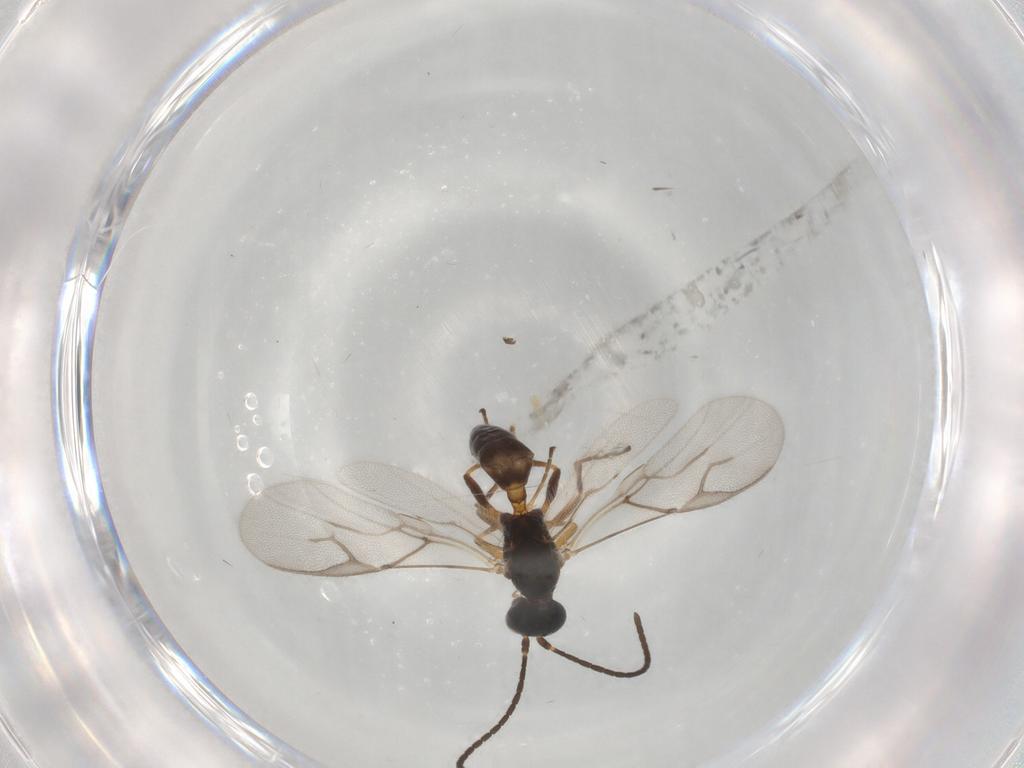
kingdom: Animalia
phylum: Arthropoda
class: Insecta
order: Hymenoptera
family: Braconidae
